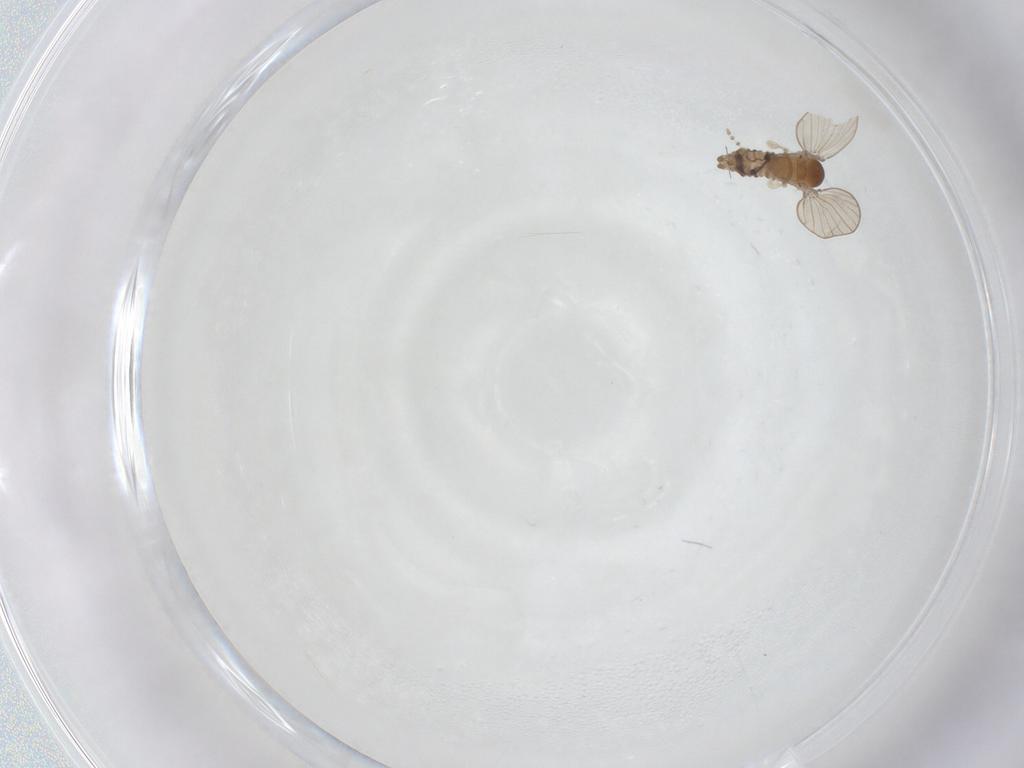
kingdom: Animalia
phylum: Arthropoda
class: Insecta
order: Diptera
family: Psychodidae
